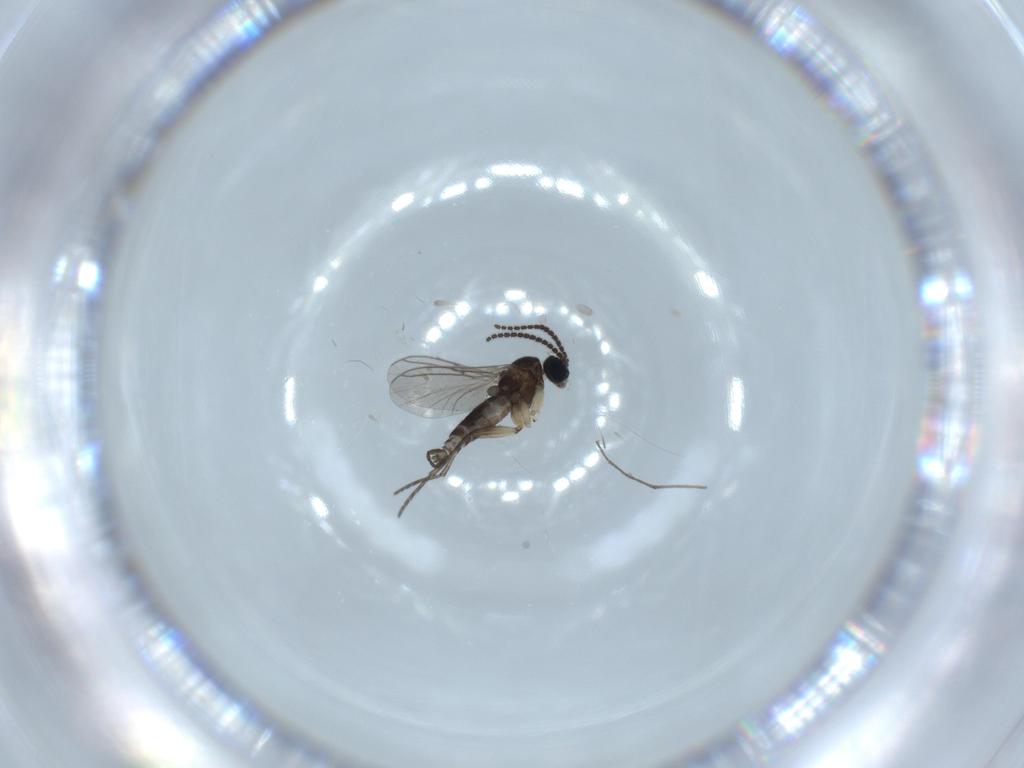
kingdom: Animalia
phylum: Arthropoda
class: Insecta
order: Diptera
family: Sciaridae
